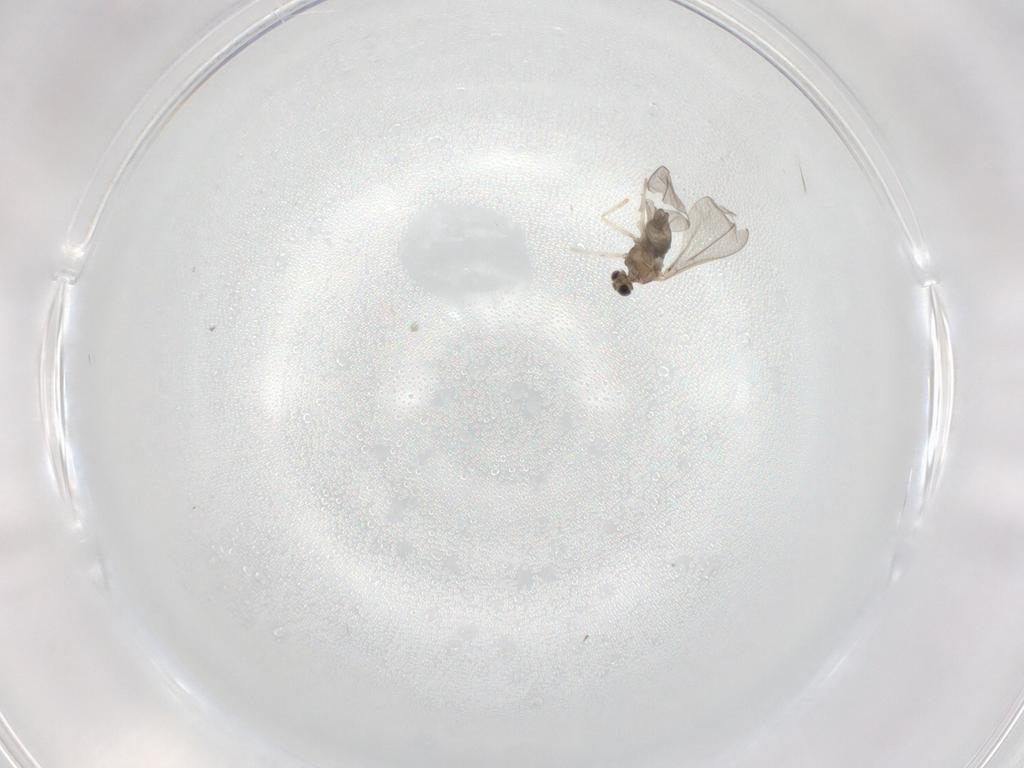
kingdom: Animalia
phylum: Arthropoda
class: Insecta
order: Diptera
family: Cecidomyiidae
